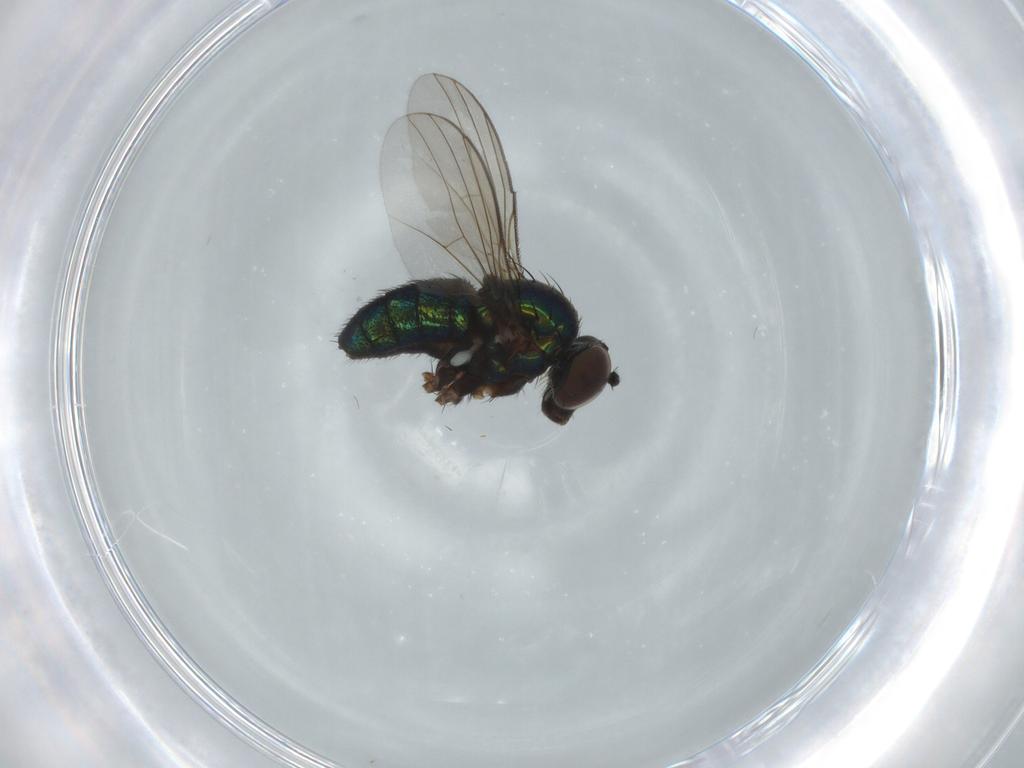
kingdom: Animalia
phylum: Arthropoda
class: Insecta
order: Diptera
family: Dolichopodidae
